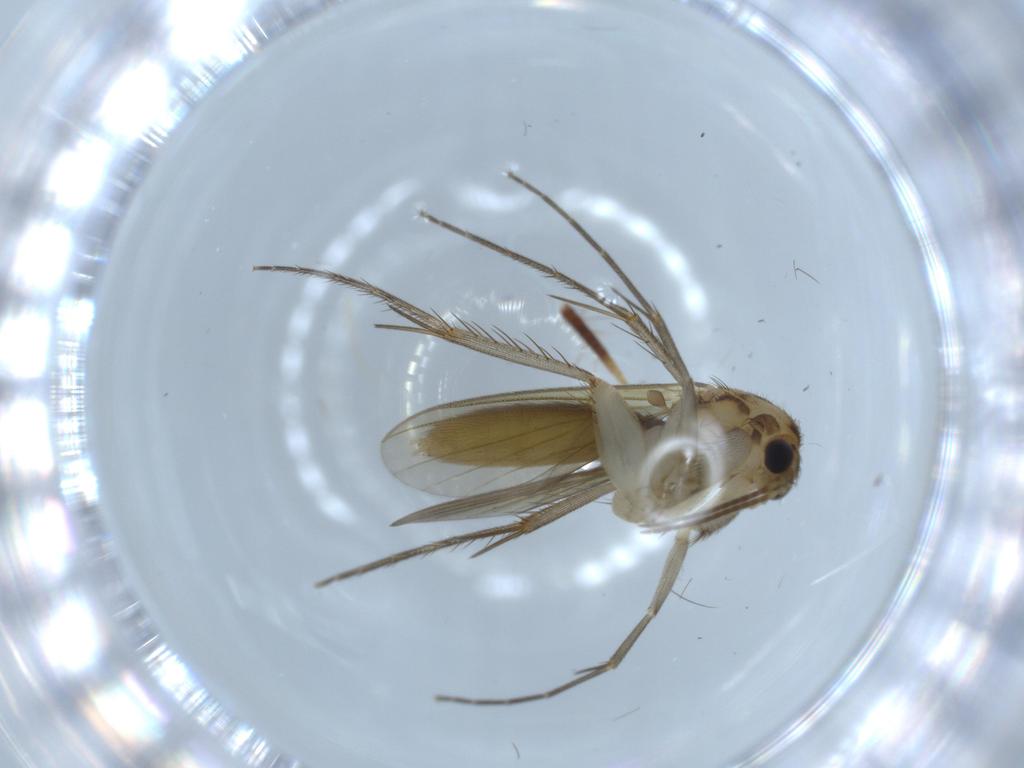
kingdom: Animalia
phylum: Arthropoda
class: Insecta
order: Diptera
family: Mycetophilidae
